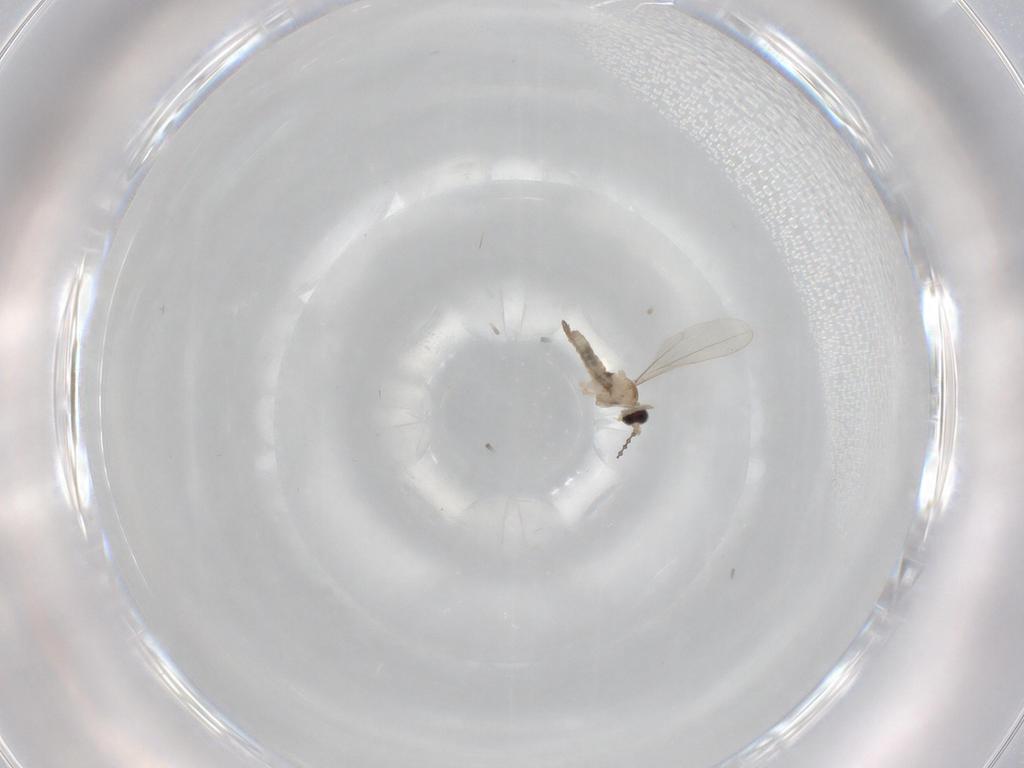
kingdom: Animalia
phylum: Arthropoda
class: Insecta
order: Diptera
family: Cecidomyiidae
